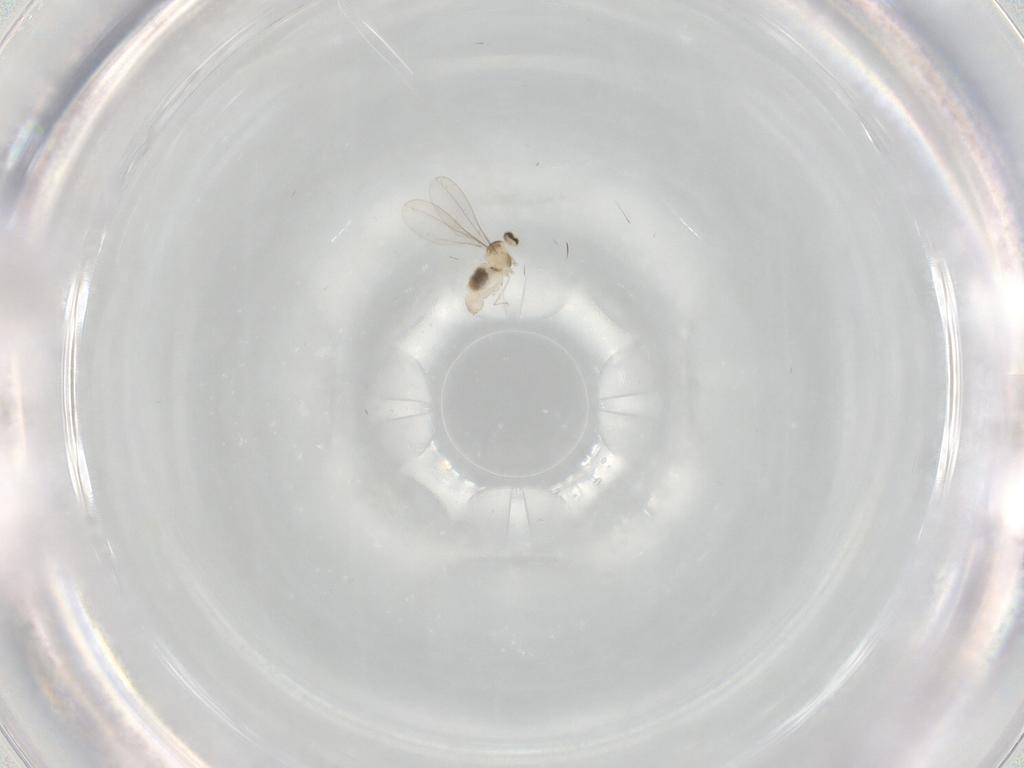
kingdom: Animalia
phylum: Arthropoda
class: Insecta
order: Diptera
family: Cecidomyiidae
